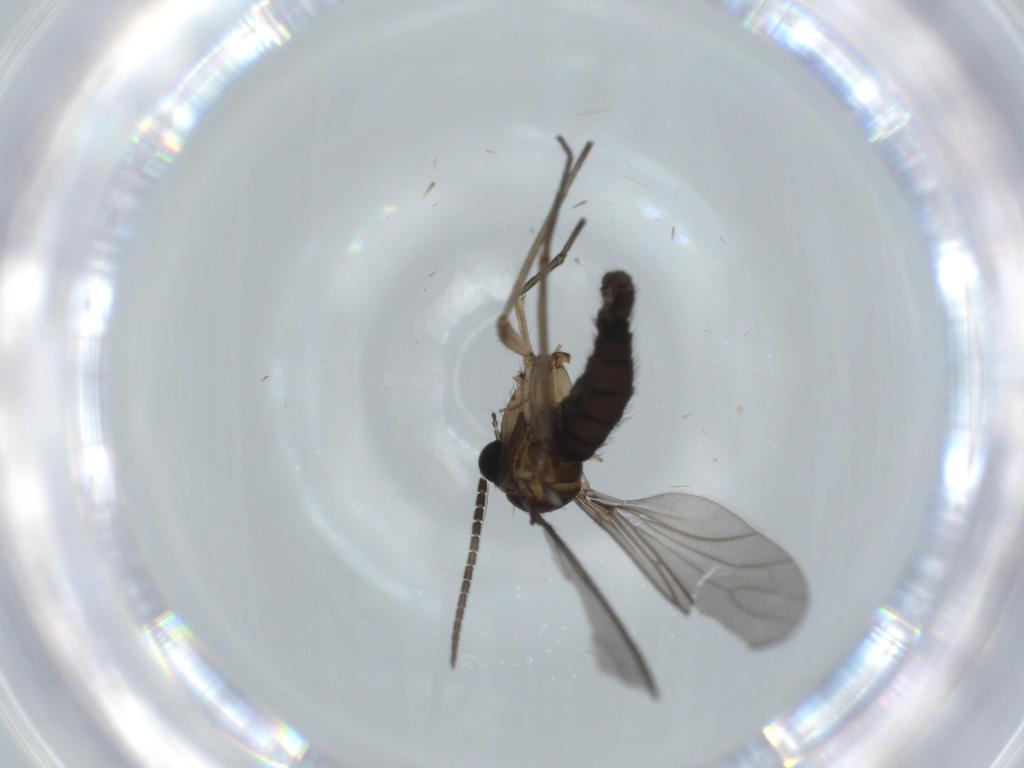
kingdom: Animalia
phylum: Arthropoda
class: Insecta
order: Diptera
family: Sciaridae
